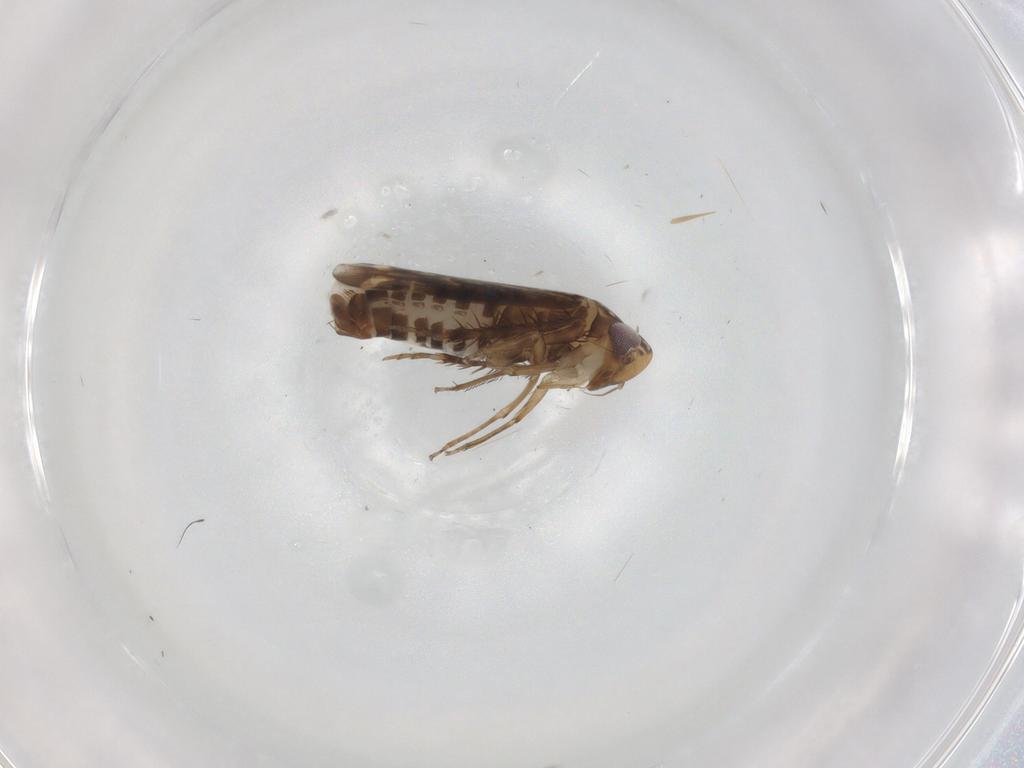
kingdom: Animalia
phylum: Arthropoda
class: Insecta
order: Hemiptera
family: Cicadellidae
